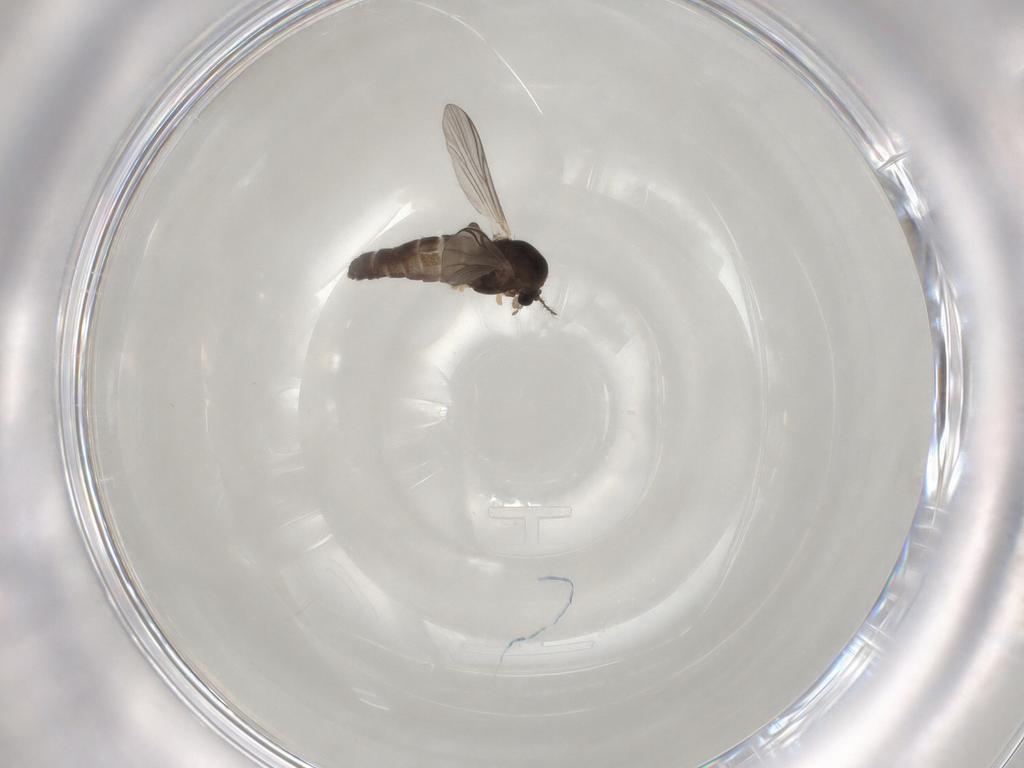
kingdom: Animalia
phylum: Arthropoda
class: Insecta
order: Diptera
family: Chironomidae
